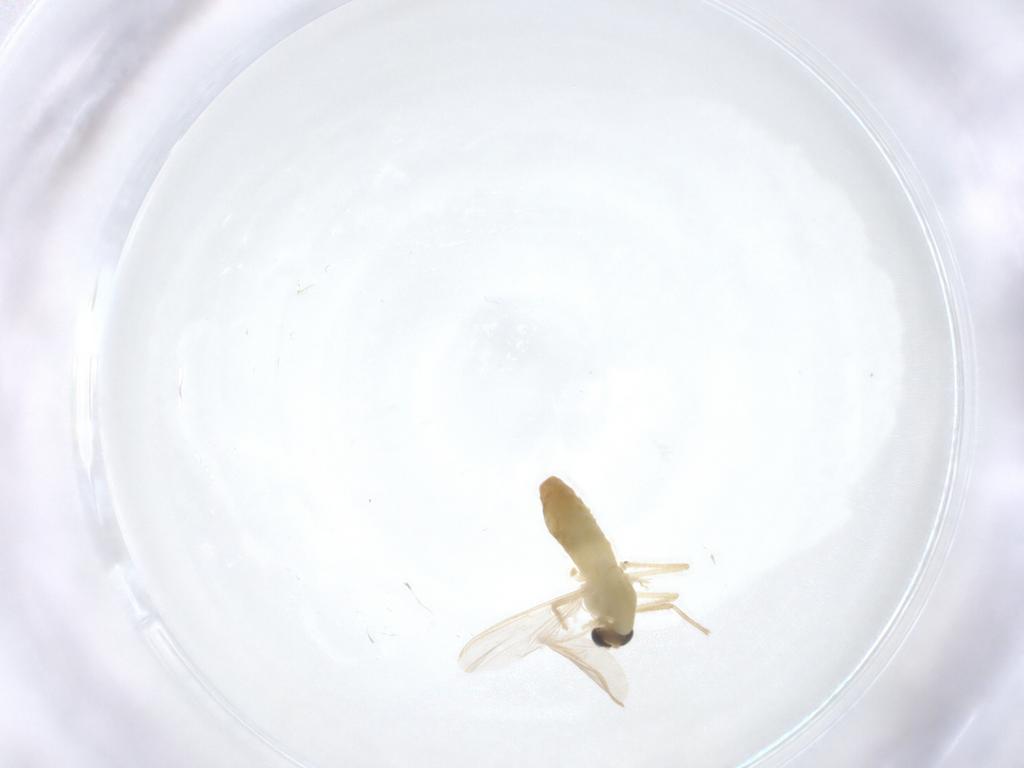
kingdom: Animalia
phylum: Arthropoda
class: Insecta
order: Diptera
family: Chironomidae
